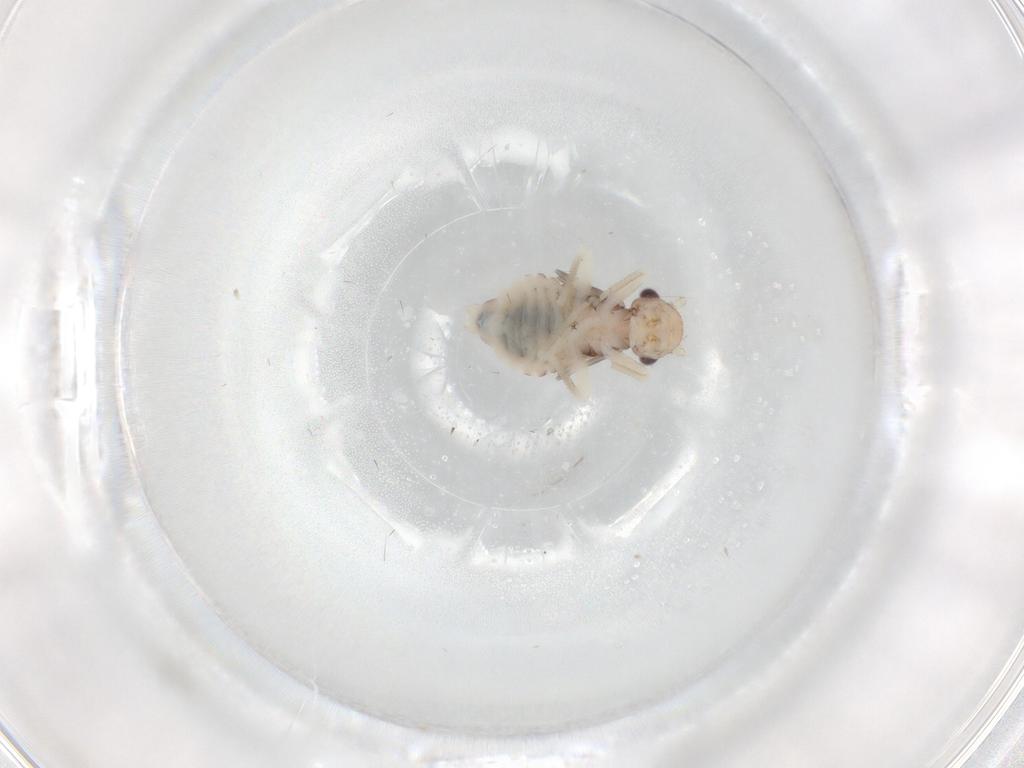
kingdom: Animalia
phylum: Arthropoda
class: Insecta
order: Psocodea
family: Amphipsocidae
